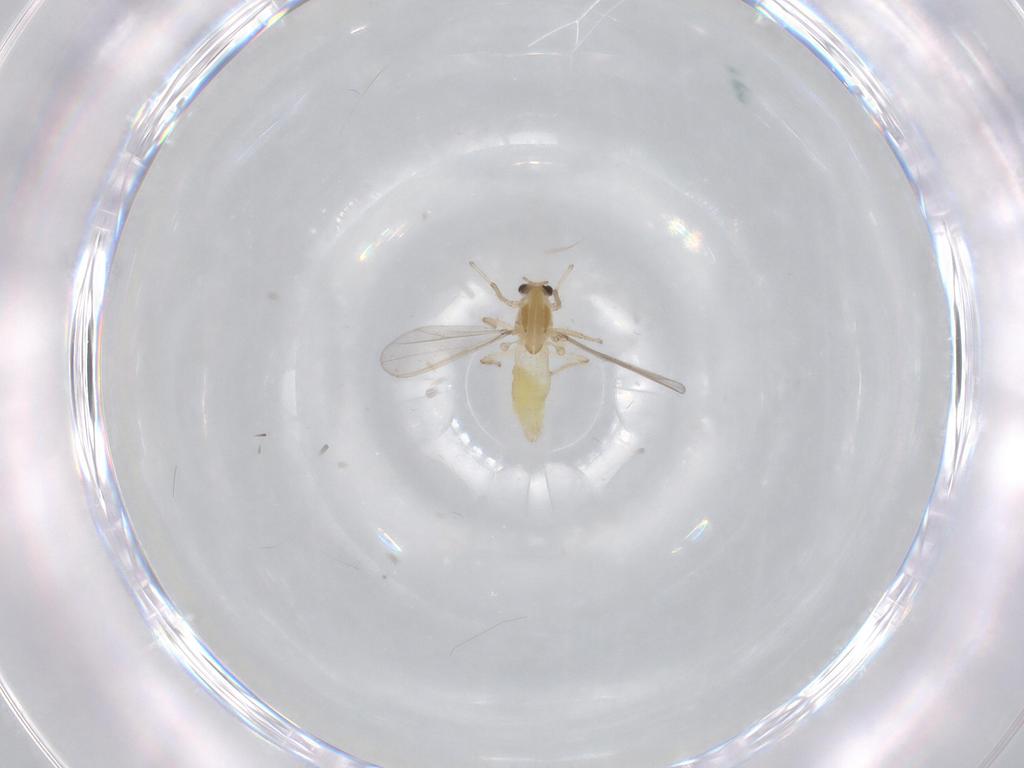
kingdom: Animalia
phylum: Arthropoda
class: Insecta
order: Diptera
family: Chironomidae
